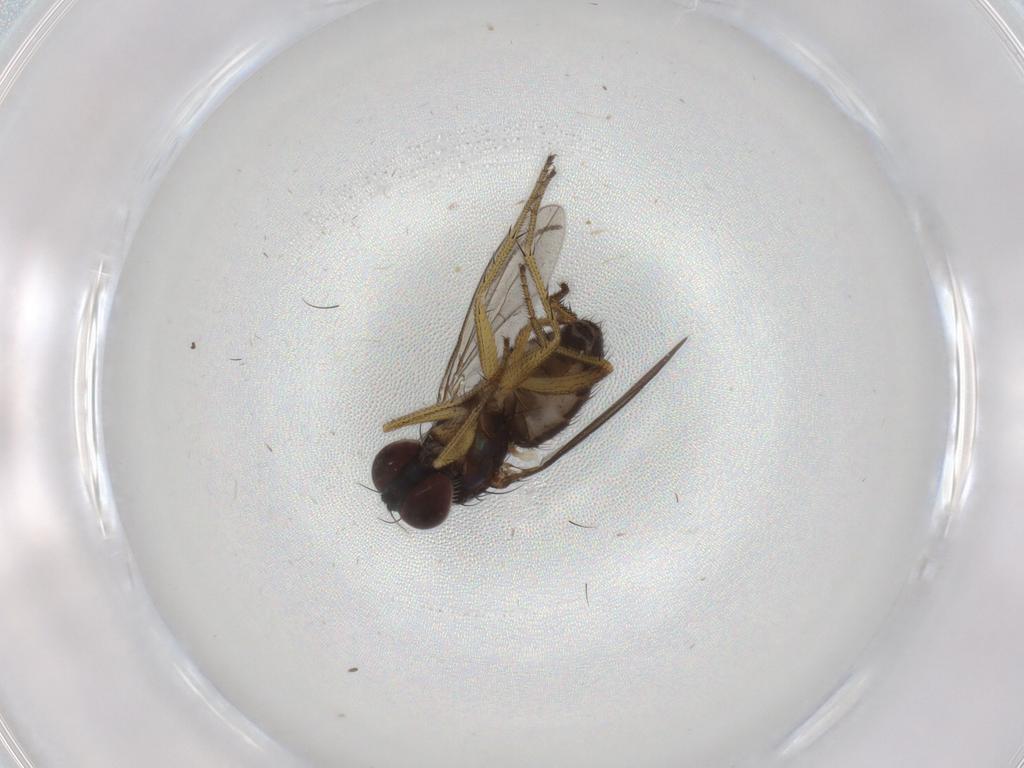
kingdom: Animalia
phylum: Arthropoda
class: Insecta
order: Diptera
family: Dolichopodidae
